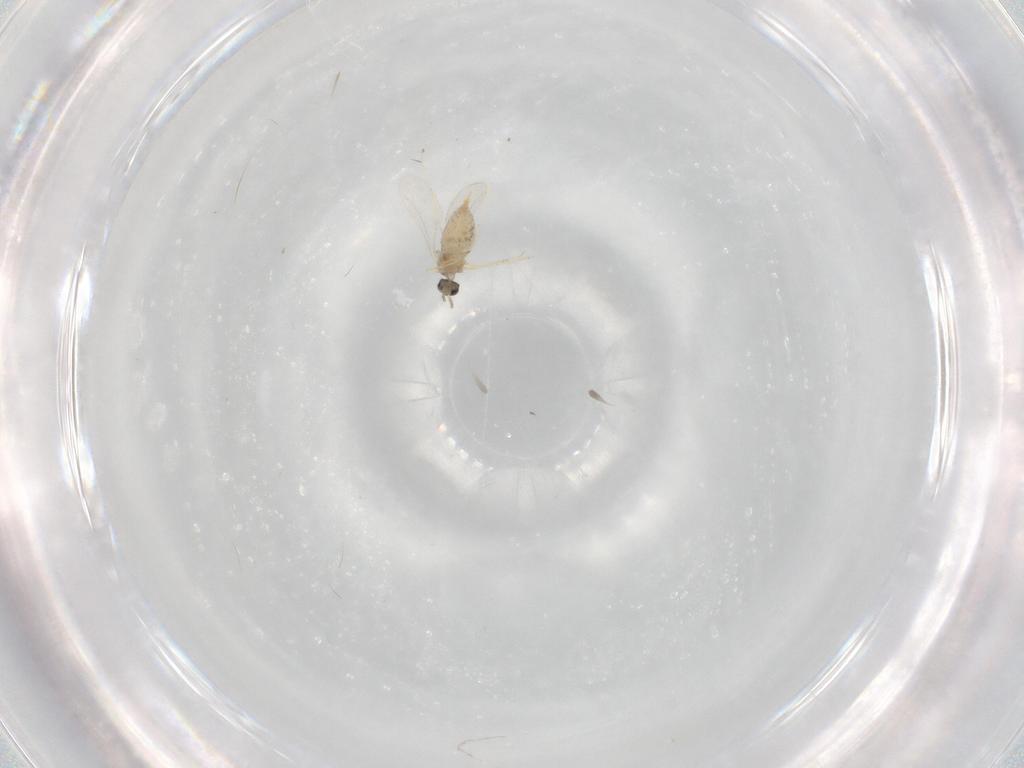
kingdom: Animalia
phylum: Arthropoda
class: Insecta
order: Diptera
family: Cecidomyiidae
